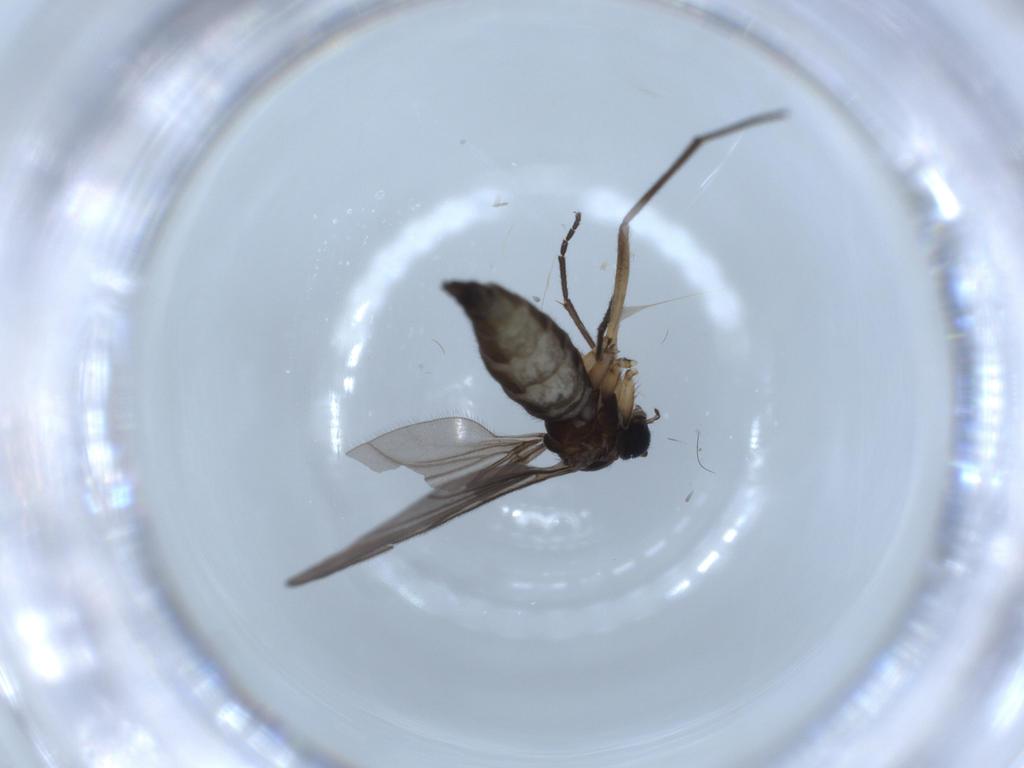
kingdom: Animalia
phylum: Arthropoda
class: Insecta
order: Diptera
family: Sciaridae
